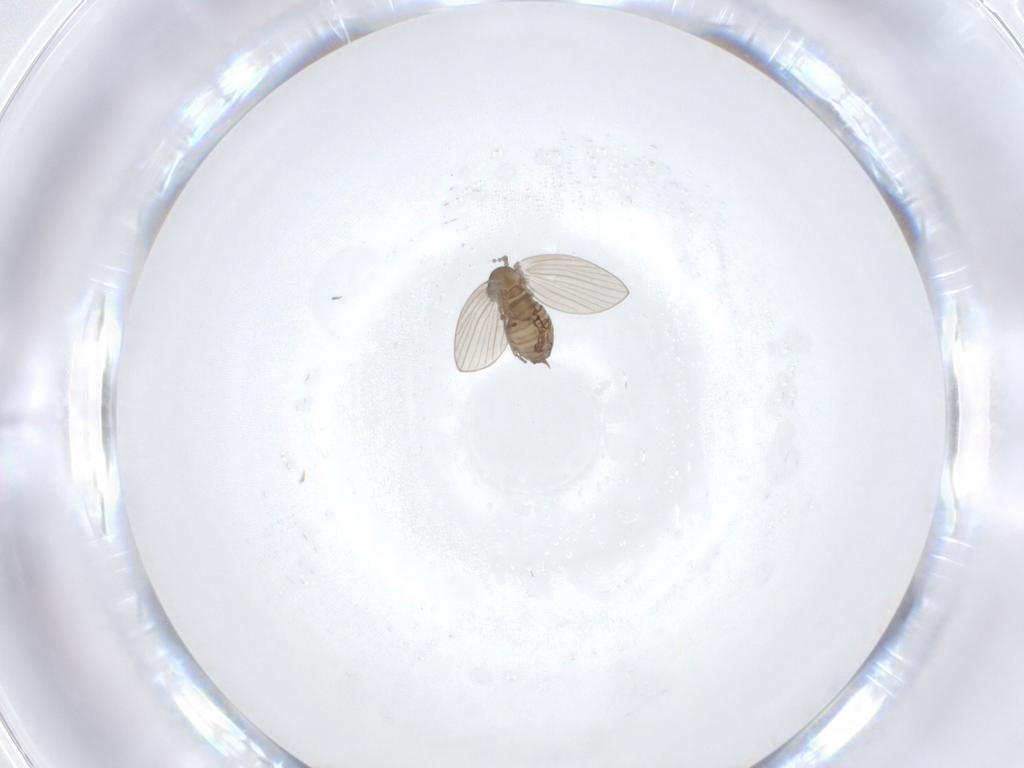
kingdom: Animalia
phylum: Arthropoda
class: Insecta
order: Diptera
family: Psychodidae
